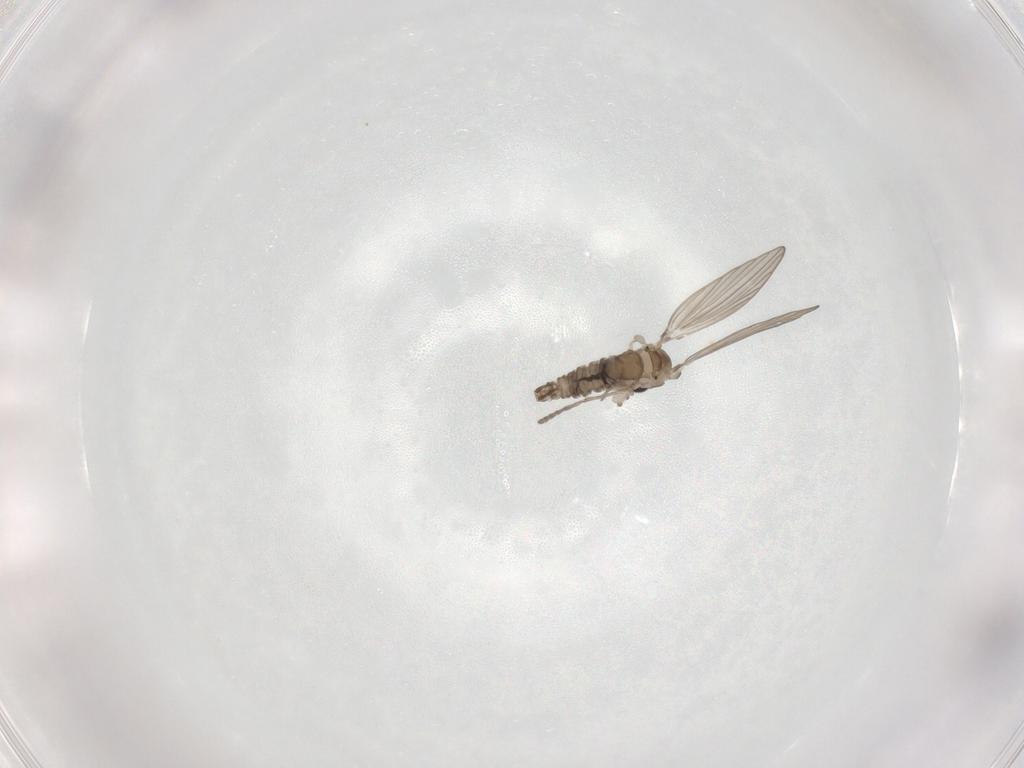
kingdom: Animalia
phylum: Arthropoda
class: Insecta
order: Diptera
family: Psychodidae
